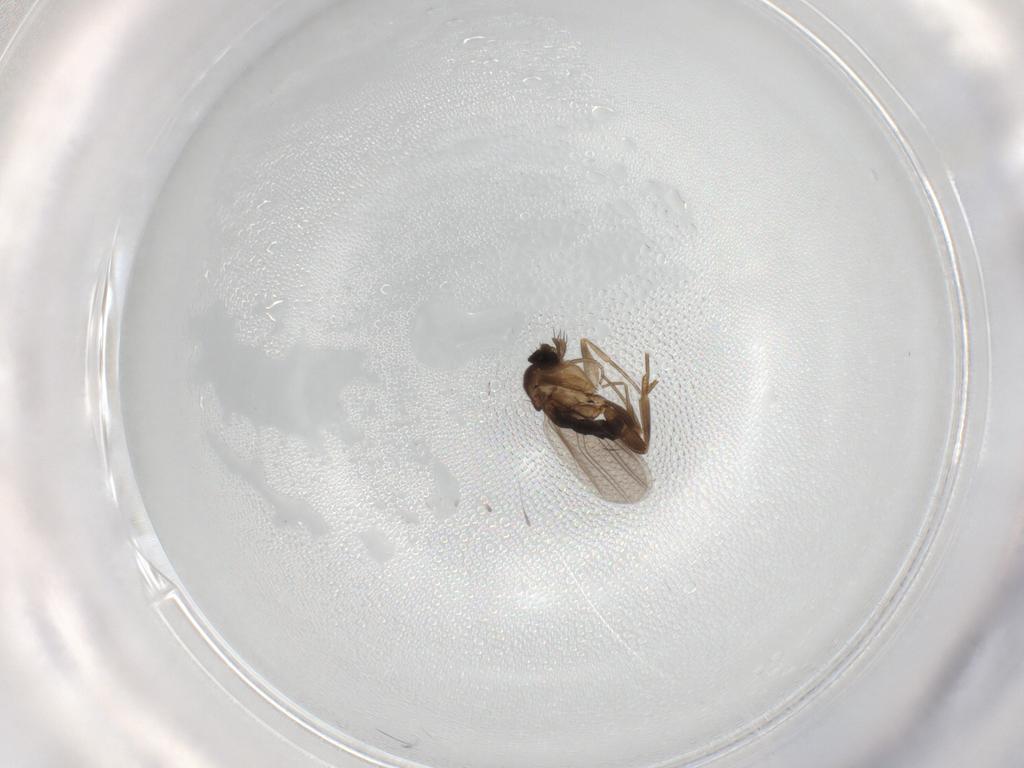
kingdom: Animalia
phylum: Arthropoda
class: Insecta
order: Diptera
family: Phoridae
